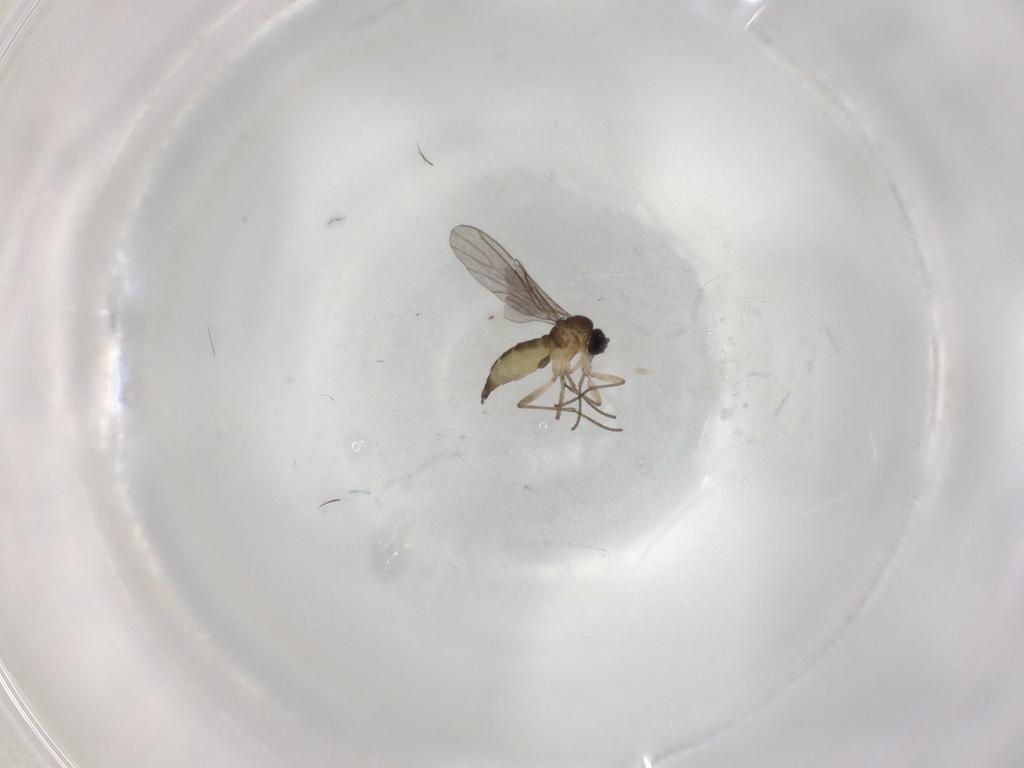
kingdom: Animalia
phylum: Arthropoda
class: Insecta
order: Diptera
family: Sciaridae
